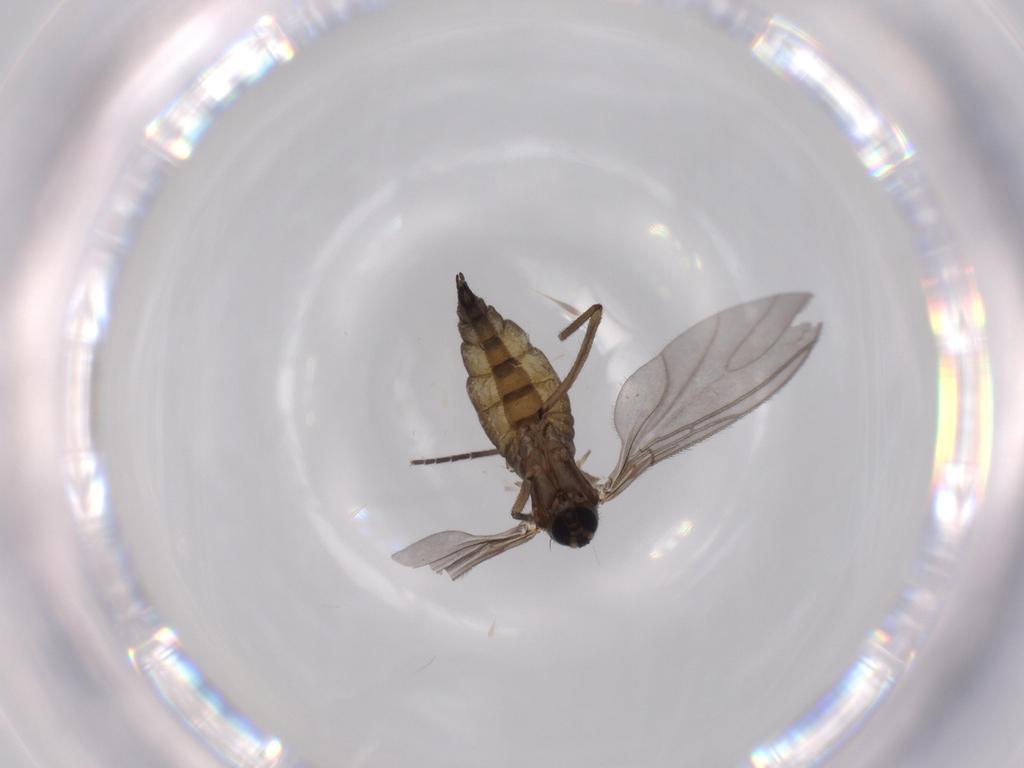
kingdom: Animalia
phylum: Arthropoda
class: Insecta
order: Diptera
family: Sciaridae
